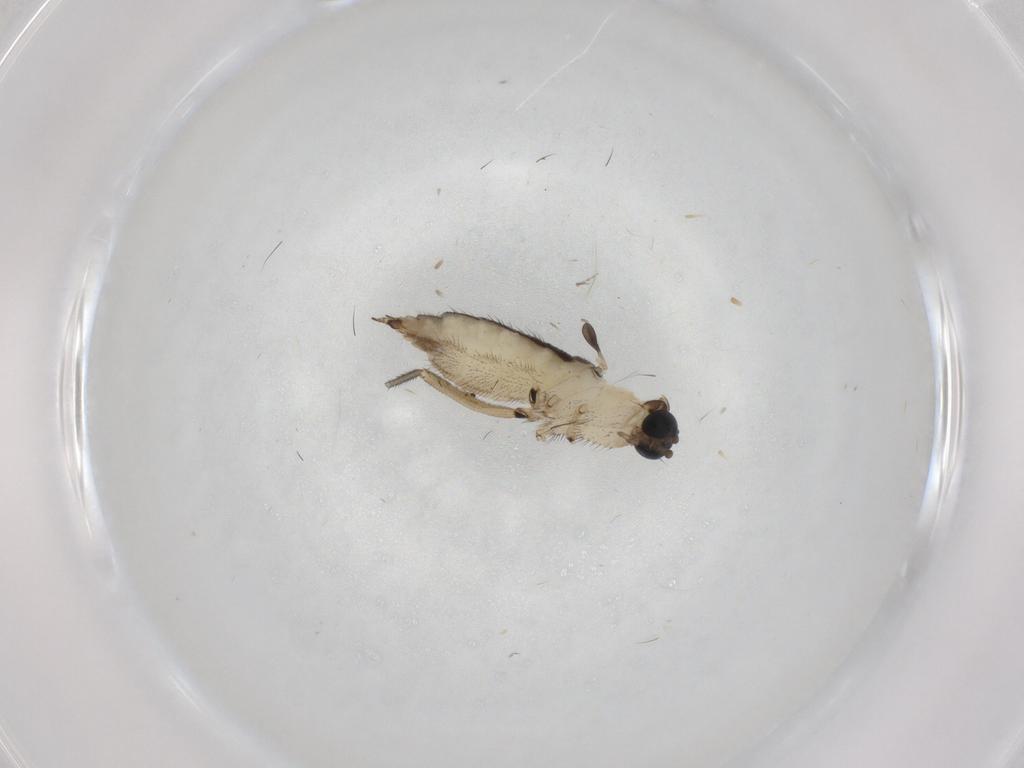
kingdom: Animalia
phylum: Arthropoda
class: Insecta
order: Diptera
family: Sciaridae
